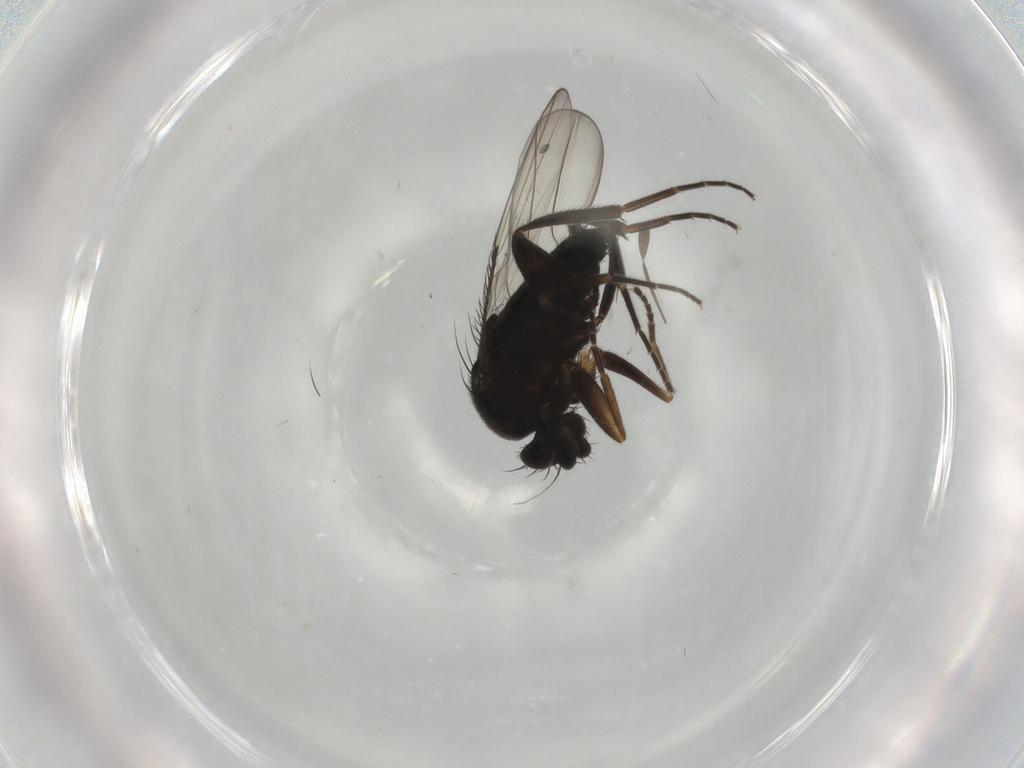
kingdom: Animalia
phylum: Arthropoda
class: Insecta
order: Diptera
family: Phoridae
